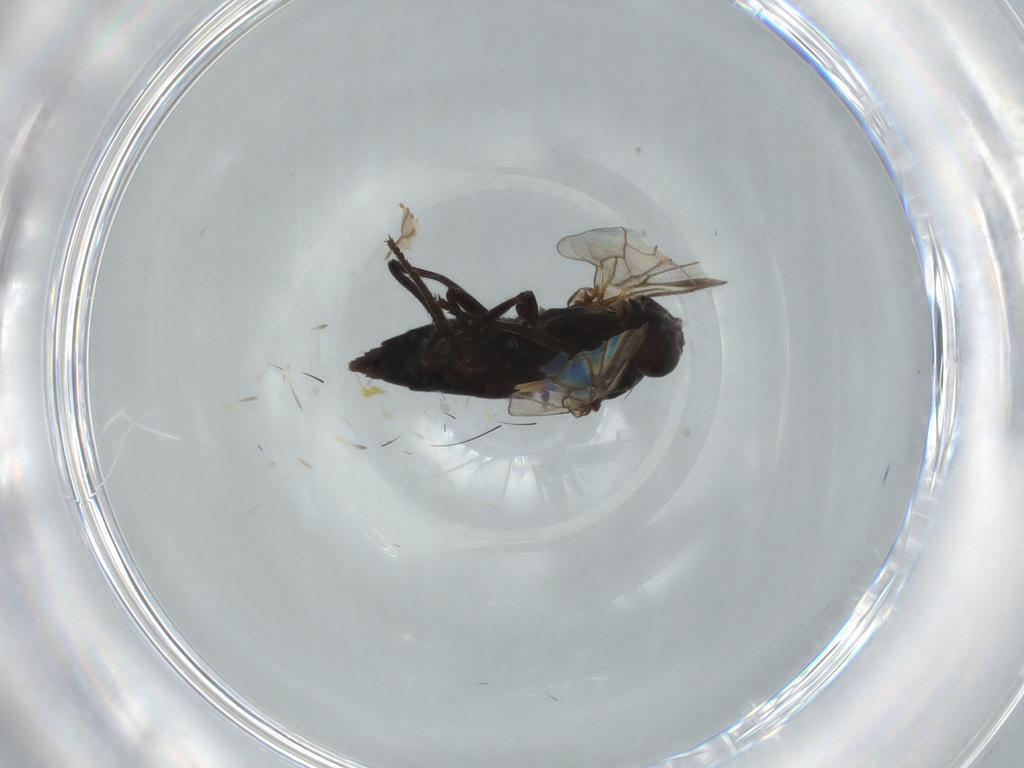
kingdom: Animalia
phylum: Arthropoda
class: Insecta
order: Diptera
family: Empididae
